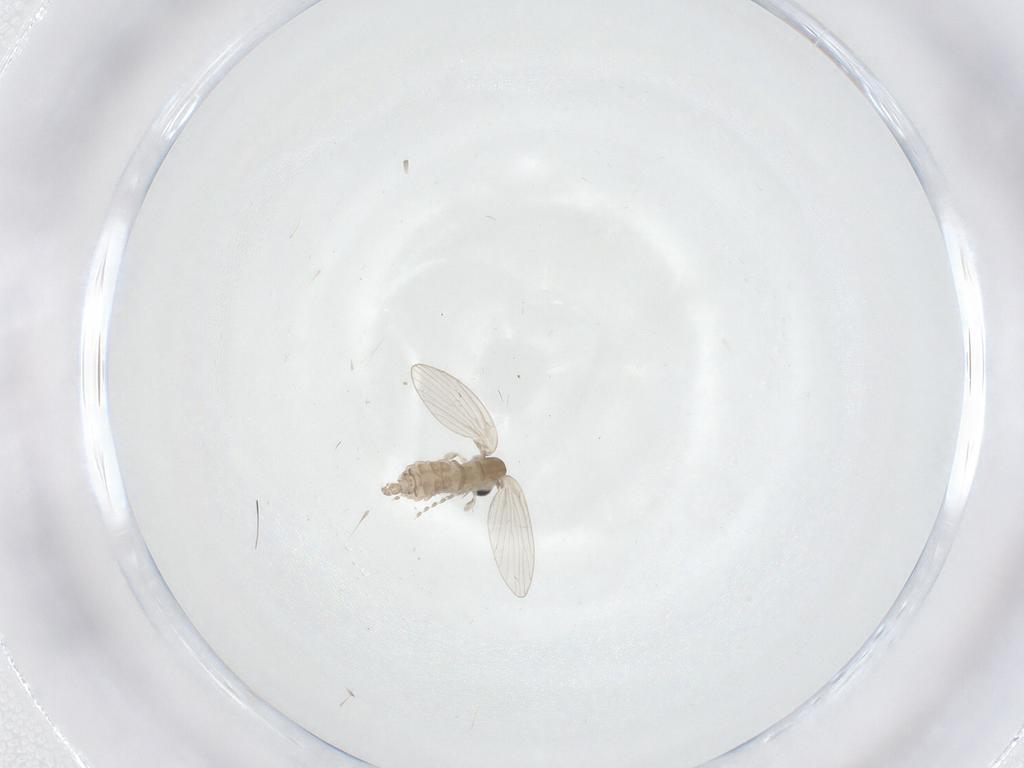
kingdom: Animalia
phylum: Arthropoda
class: Insecta
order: Diptera
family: Psychodidae
